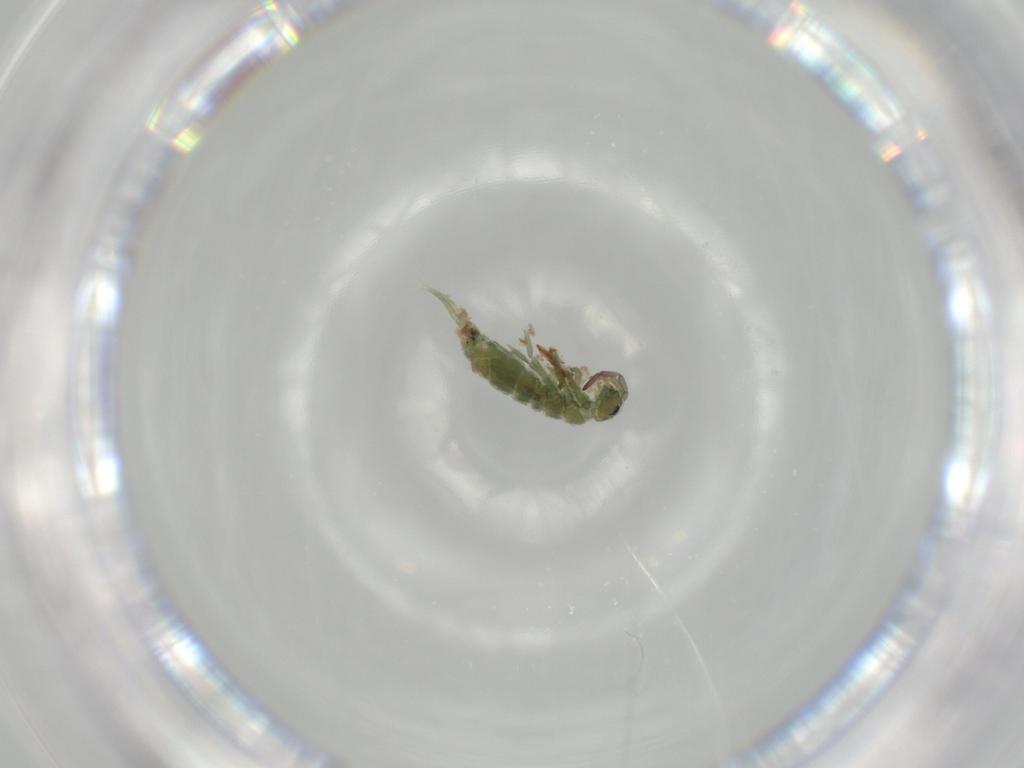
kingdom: Animalia
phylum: Arthropoda
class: Collembola
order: Entomobryomorpha
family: Isotomidae
